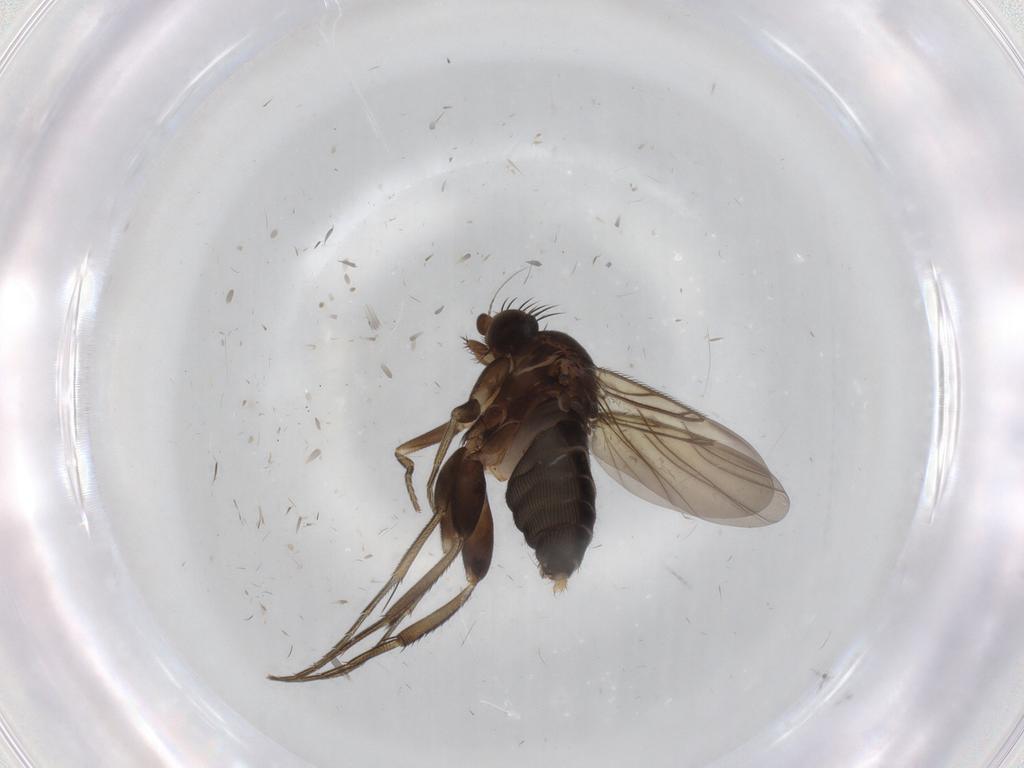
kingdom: Animalia
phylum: Arthropoda
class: Insecta
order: Diptera
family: Phoridae
